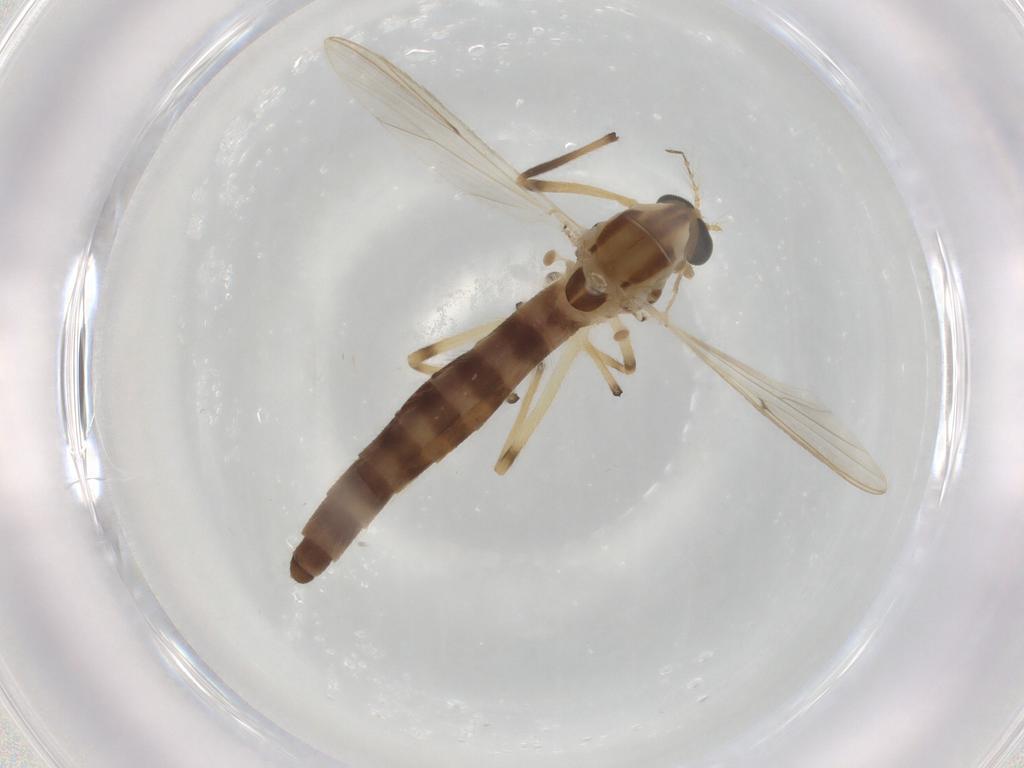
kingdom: Animalia
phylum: Arthropoda
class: Insecta
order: Diptera
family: Chironomidae
